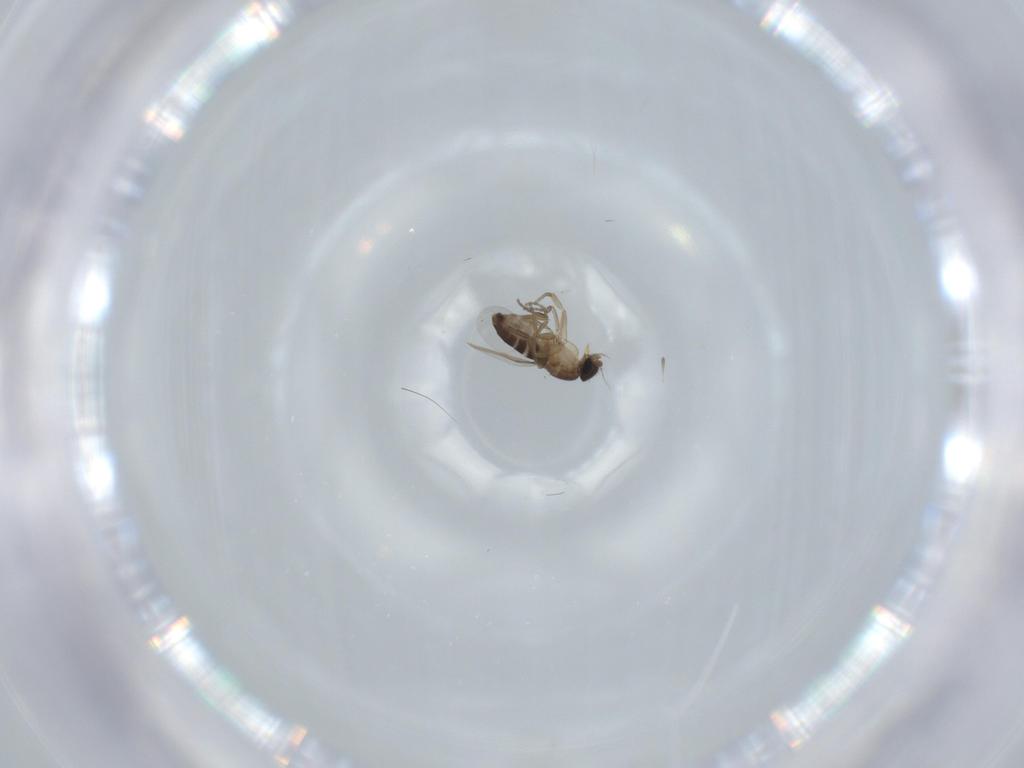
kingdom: Animalia
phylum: Arthropoda
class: Insecta
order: Diptera
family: Phoridae
